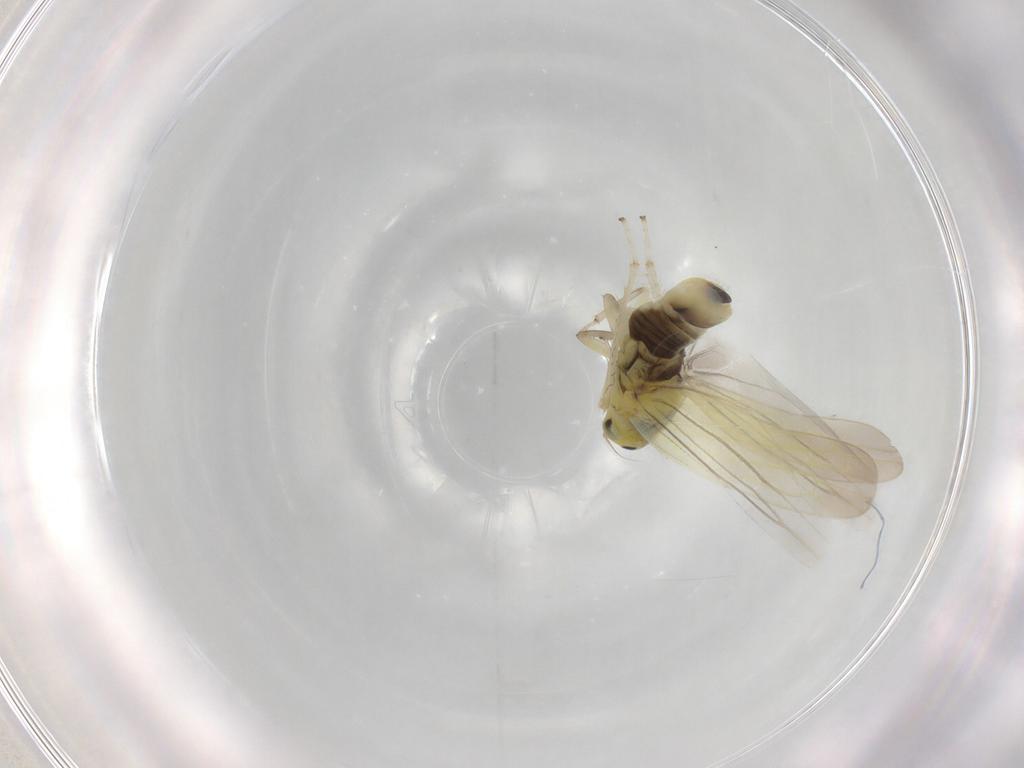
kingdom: Animalia
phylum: Arthropoda
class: Insecta
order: Hemiptera
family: Cicadellidae
